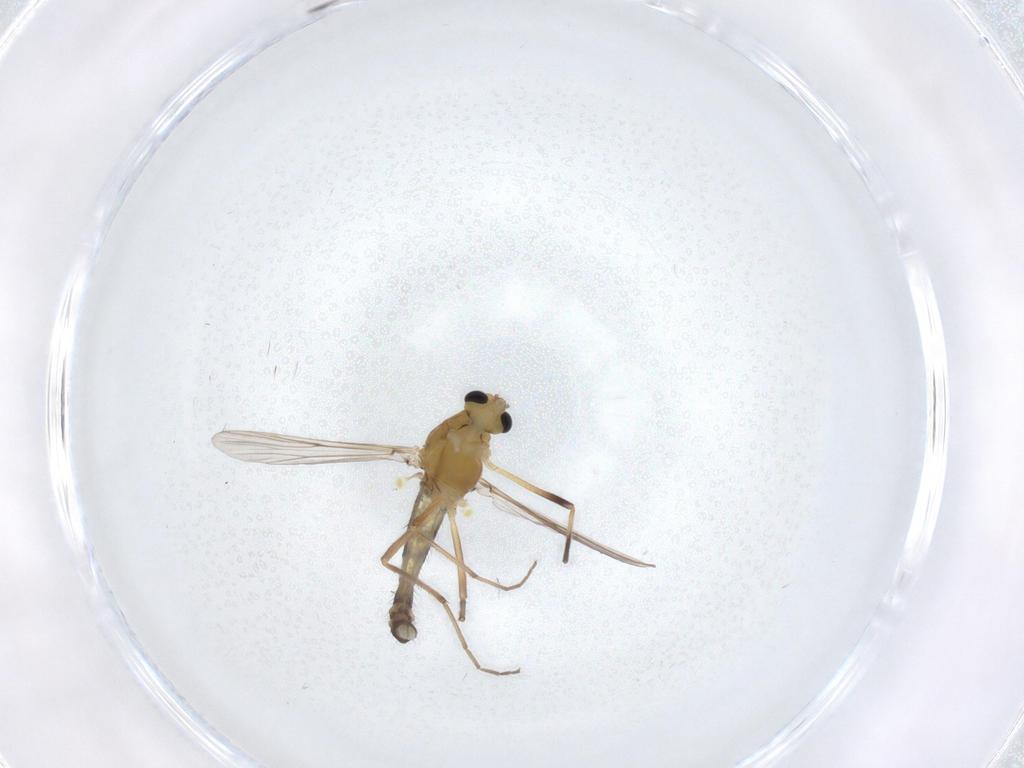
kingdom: Animalia
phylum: Arthropoda
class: Insecta
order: Diptera
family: Chironomidae
